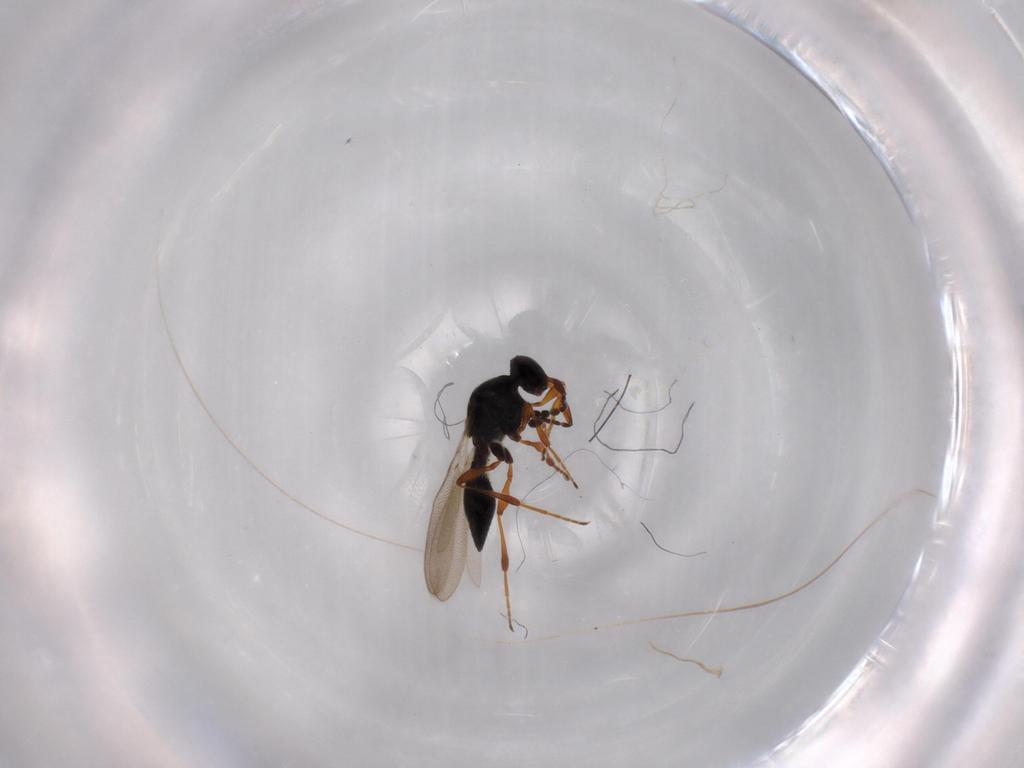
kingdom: Animalia
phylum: Arthropoda
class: Insecta
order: Hymenoptera
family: Platygastridae
